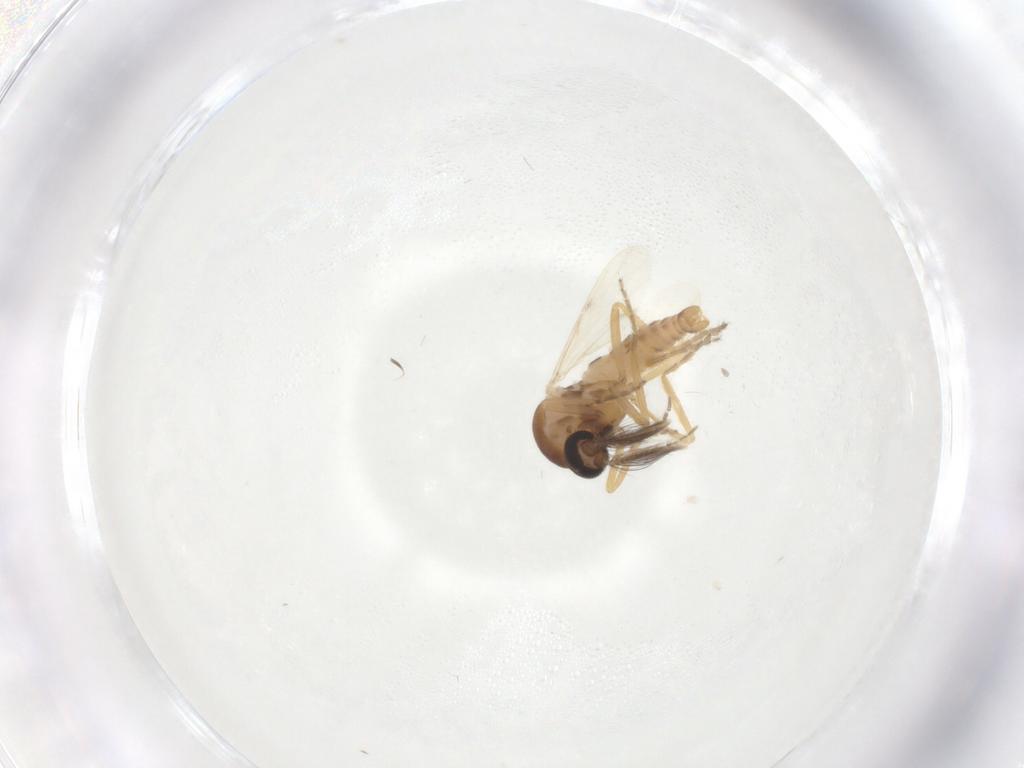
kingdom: Animalia
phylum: Arthropoda
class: Insecta
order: Diptera
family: Ceratopogonidae
